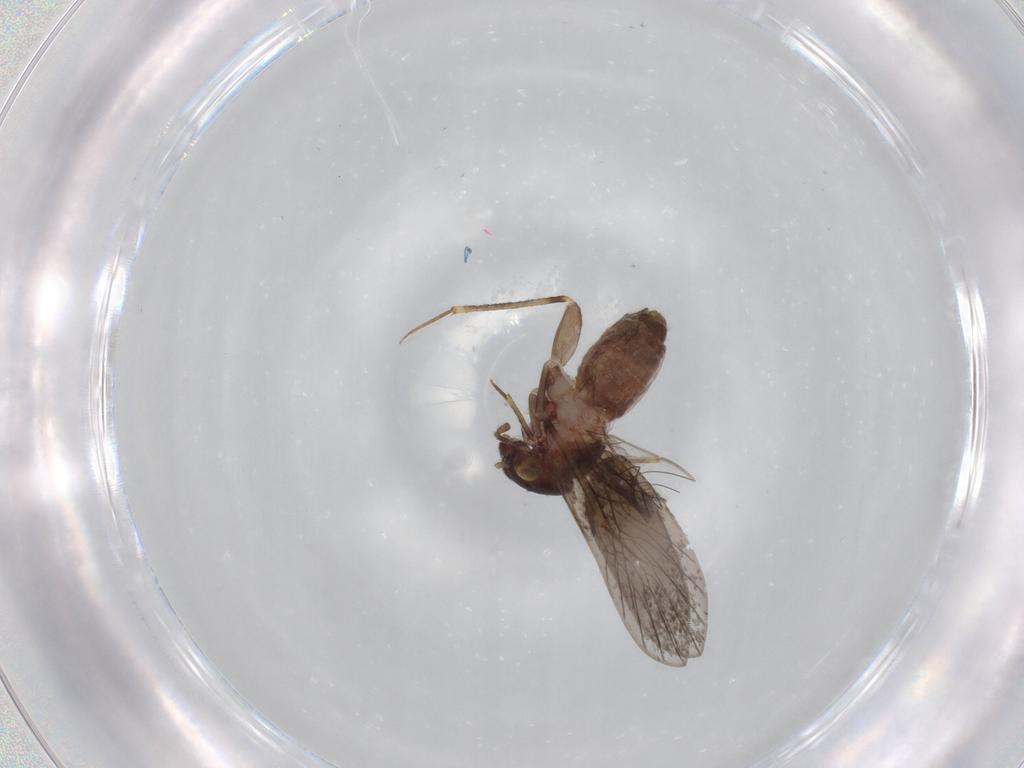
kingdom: Animalia
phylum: Arthropoda
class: Insecta
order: Psocodea
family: Lepidopsocidae
